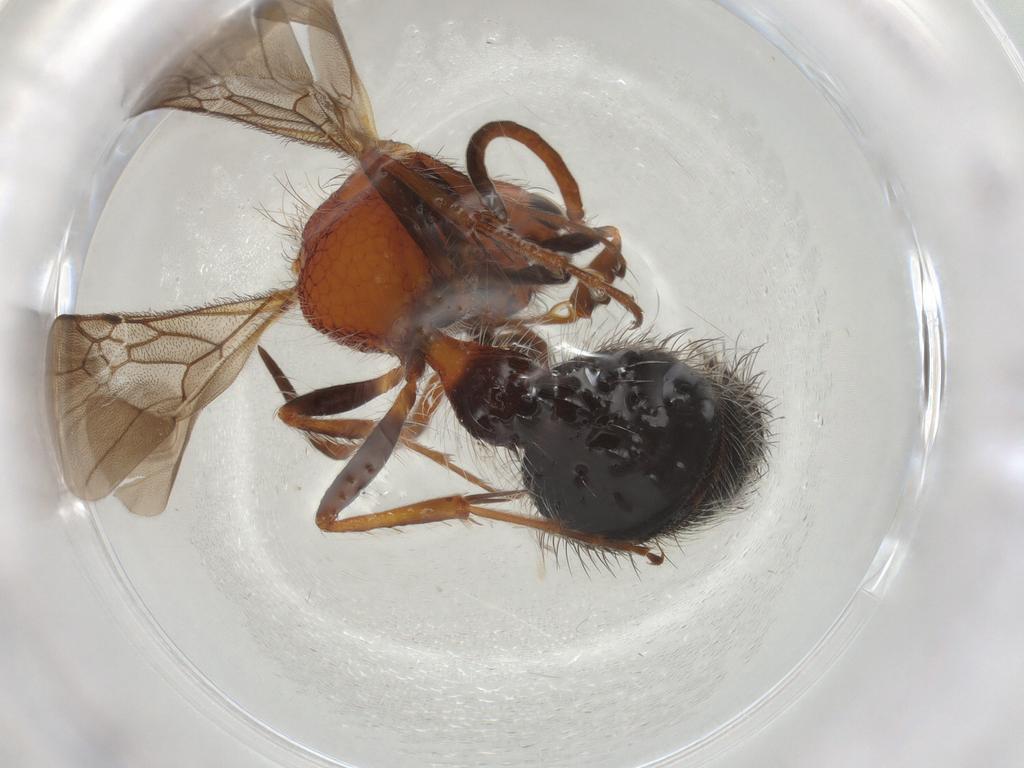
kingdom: Animalia
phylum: Arthropoda
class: Insecta
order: Hymenoptera
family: Mutillidae
